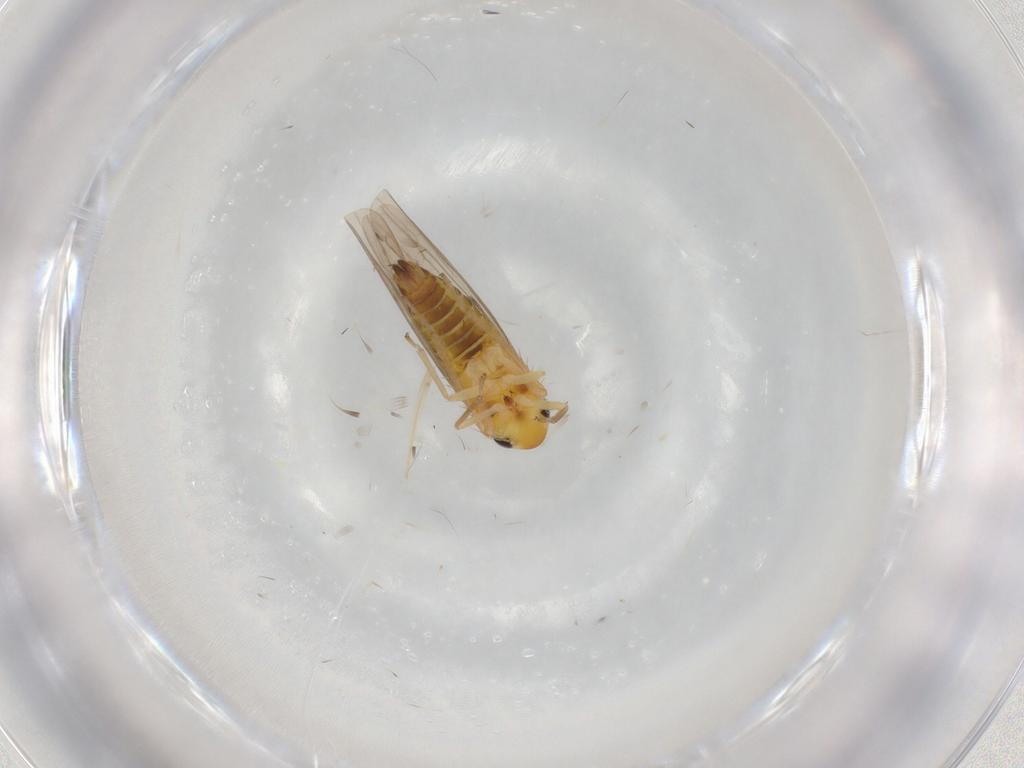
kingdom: Animalia
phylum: Arthropoda
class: Insecta
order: Hemiptera
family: Cicadellidae
